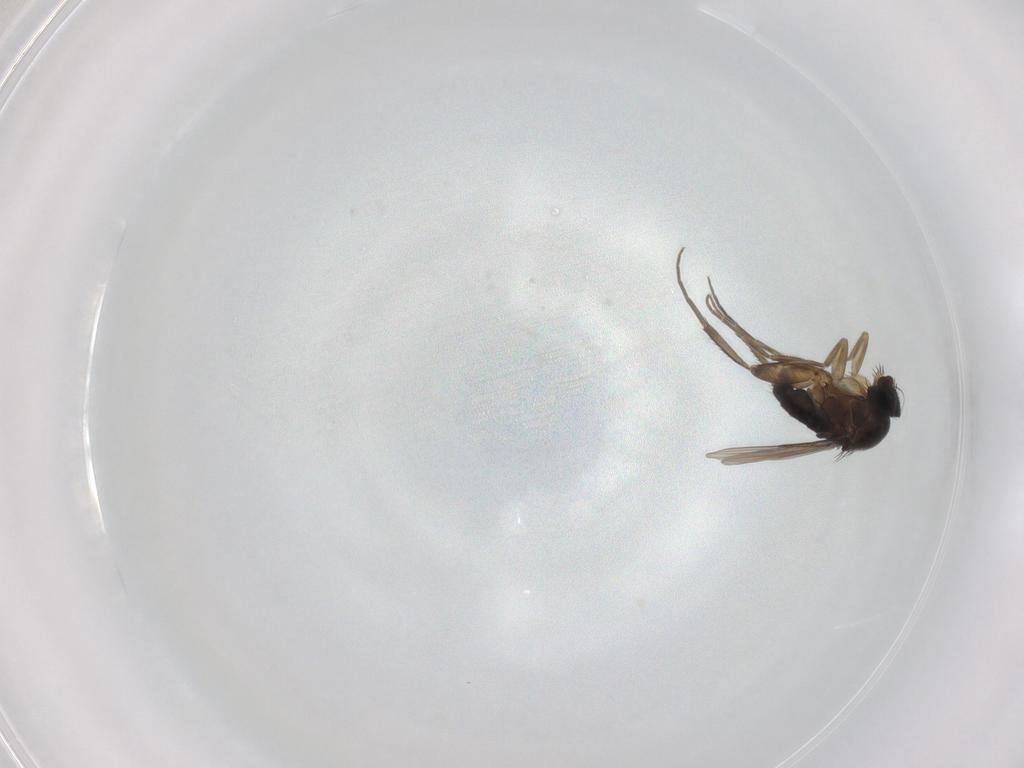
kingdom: Animalia
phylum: Arthropoda
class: Insecta
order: Diptera
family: Phoridae
